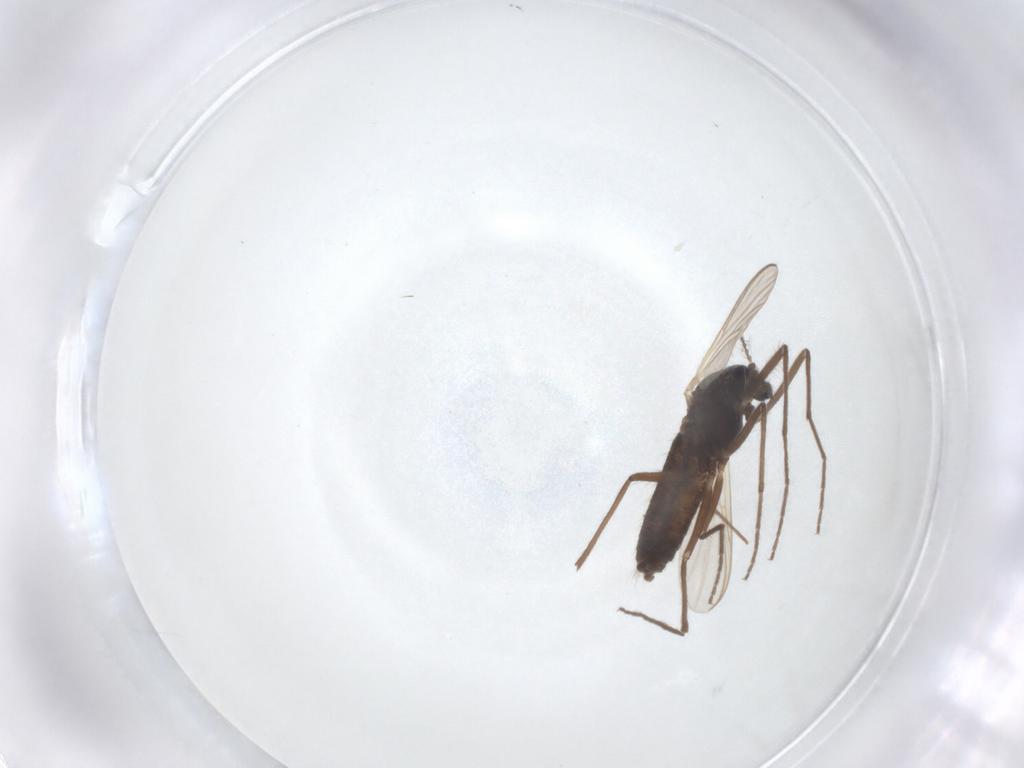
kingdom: Animalia
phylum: Arthropoda
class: Insecta
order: Diptera
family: Chironomidae
